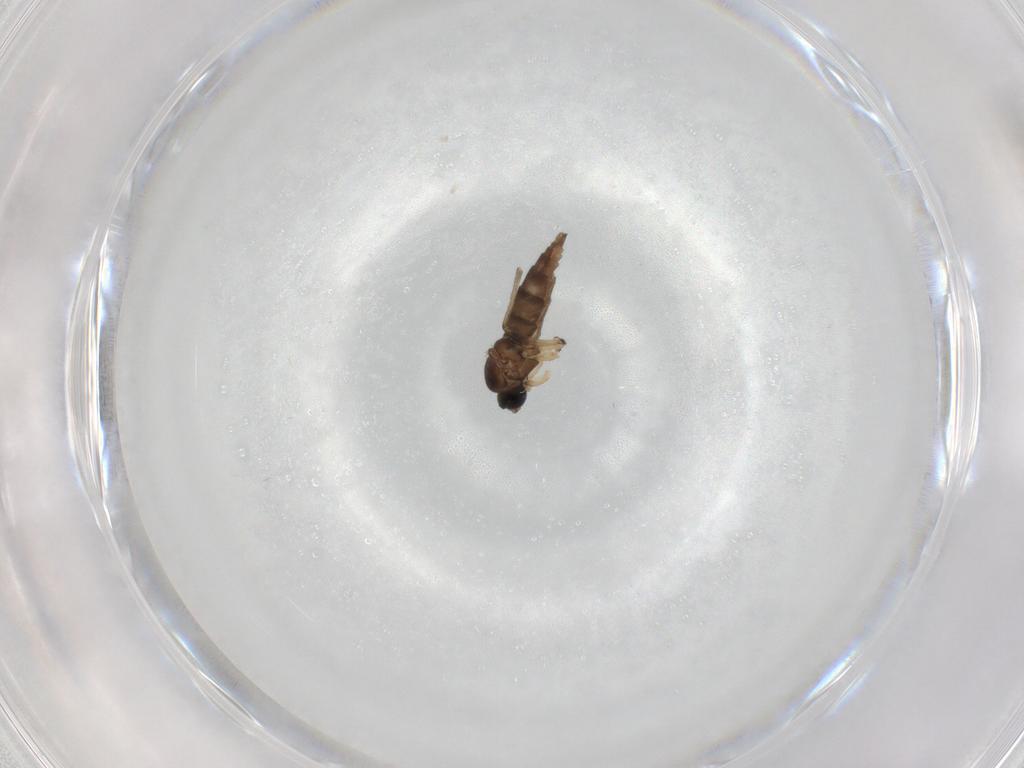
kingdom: Animalia
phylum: Arthropoda
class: Insecta
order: Diptera
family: Sciaridae
